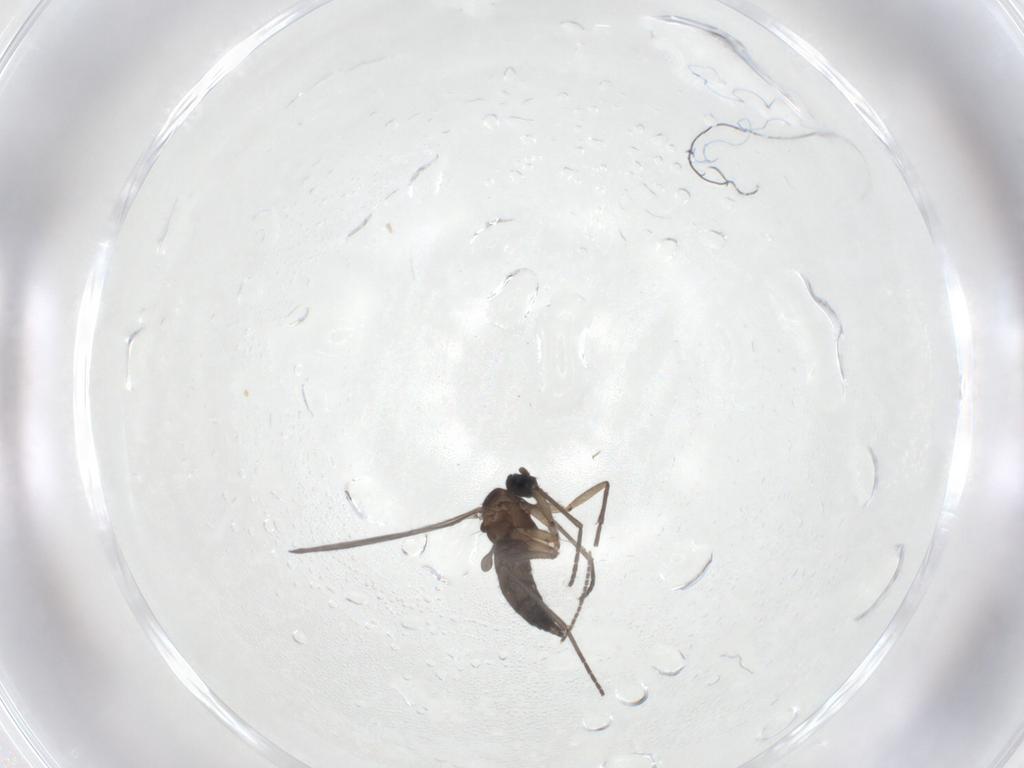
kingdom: Animalia
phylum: Arthropoda
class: Insecta
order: Diptera
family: Sciaridae
